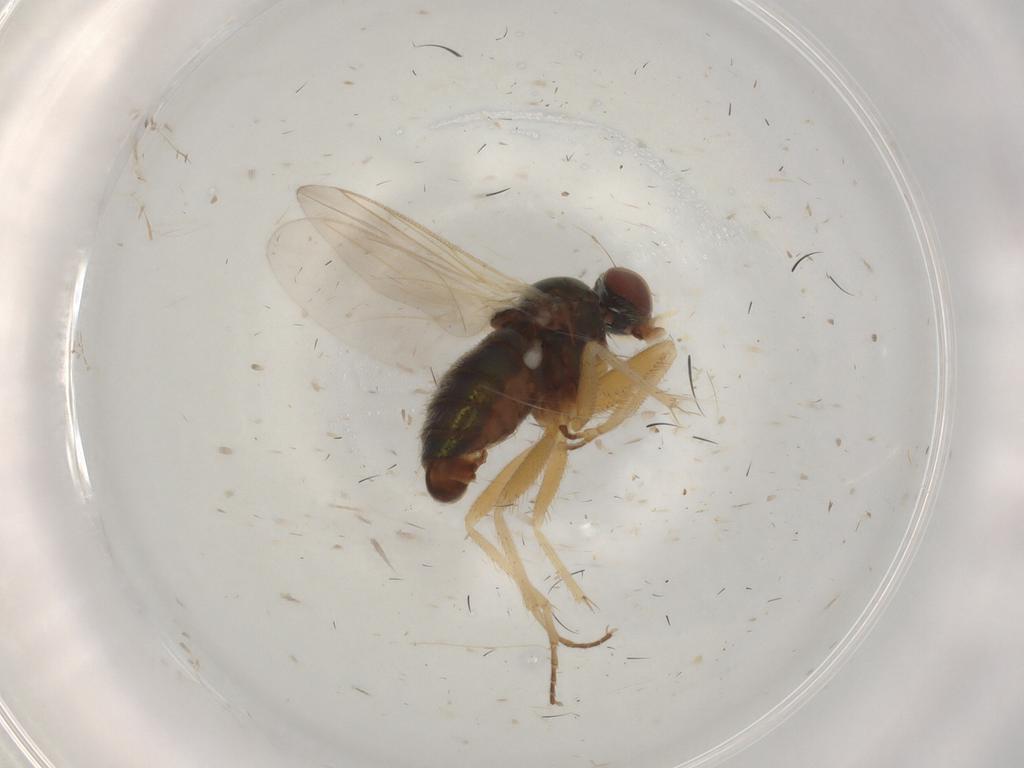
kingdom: Animalia
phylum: Arthropoda
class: Insecta
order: Diptera
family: Dolichopodidae
